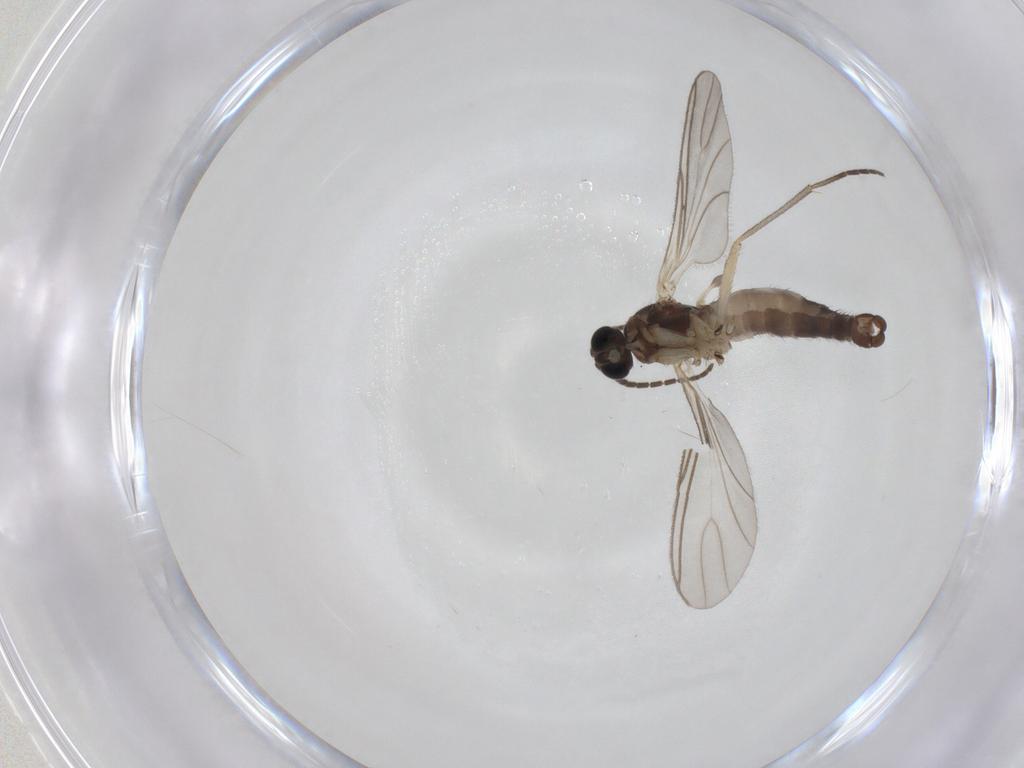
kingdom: Animalia
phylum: Arthropoda
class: Insecta
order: Diptera
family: Sciaridae
